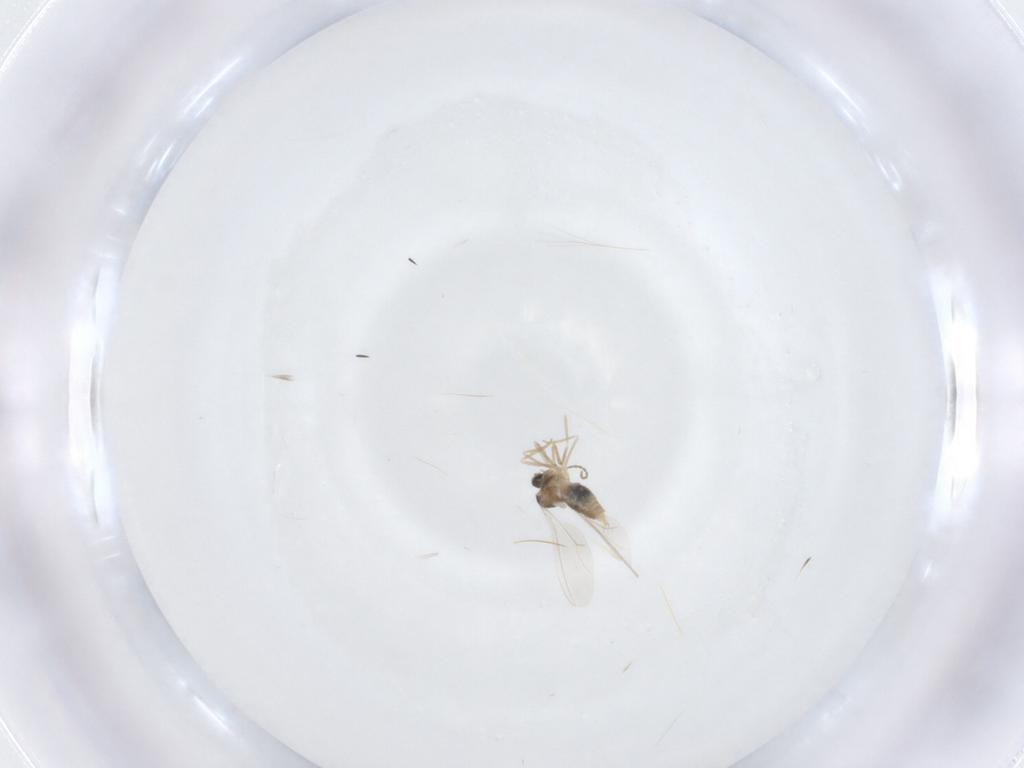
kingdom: Animalia
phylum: Arthropoda
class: Insecta
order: Diptera
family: Cecidomyiidae
